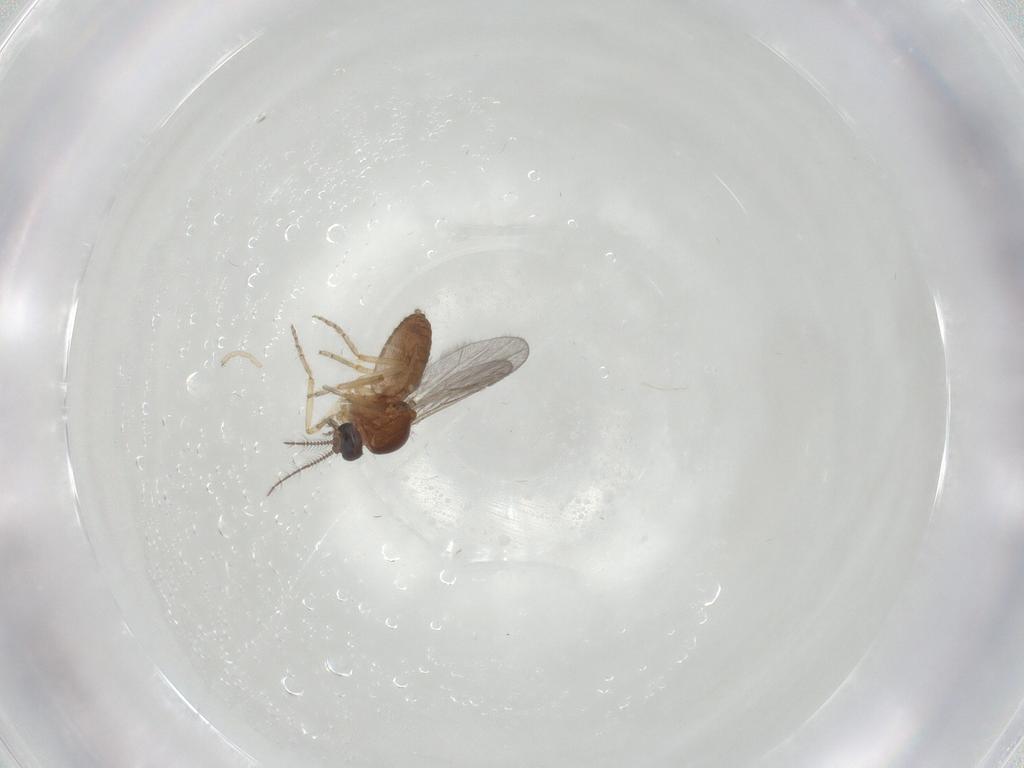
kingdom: Animalia
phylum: Arthropoda
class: Insecta
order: Diptera
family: Ceratopogonidae
